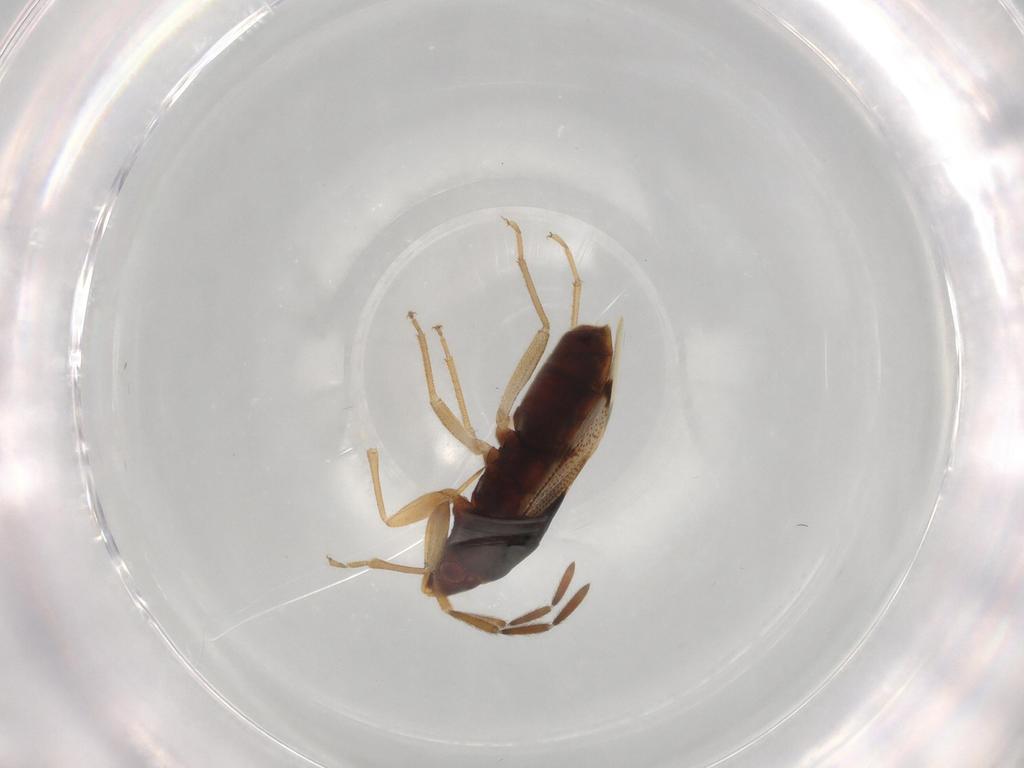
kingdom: Animalia
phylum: Arthropoda
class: Insecta
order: Hemiptera
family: Rhyparochromidae
